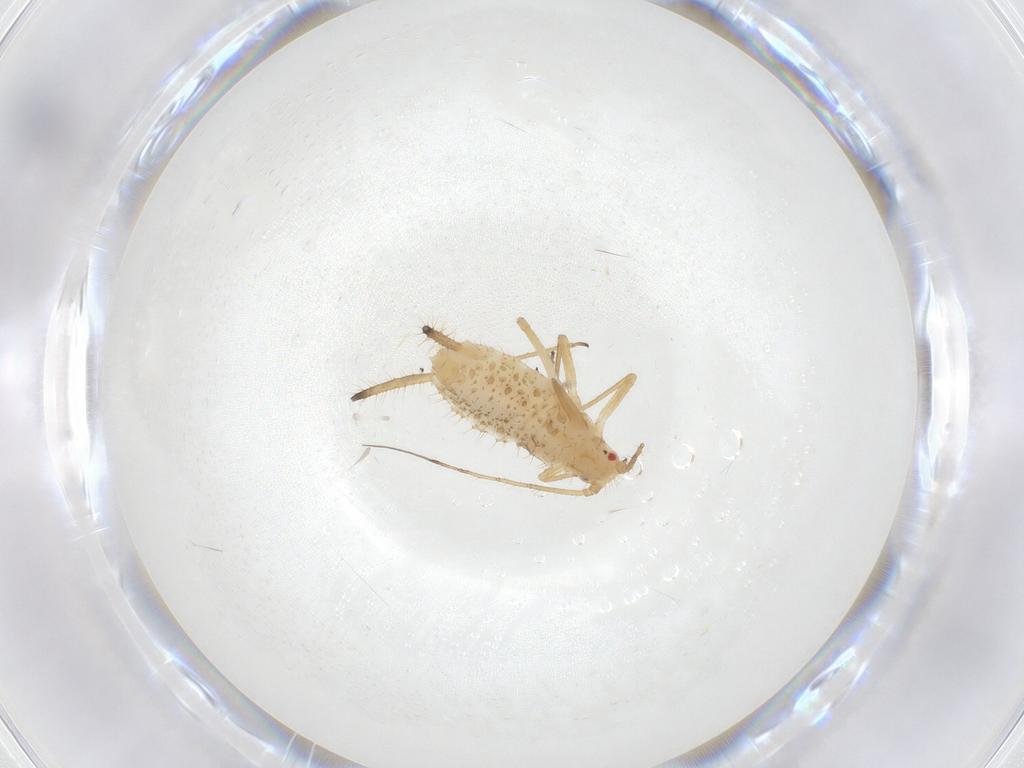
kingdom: Animalia
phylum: Arthropoda
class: Insecta
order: Hemiptera
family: Aphididae
